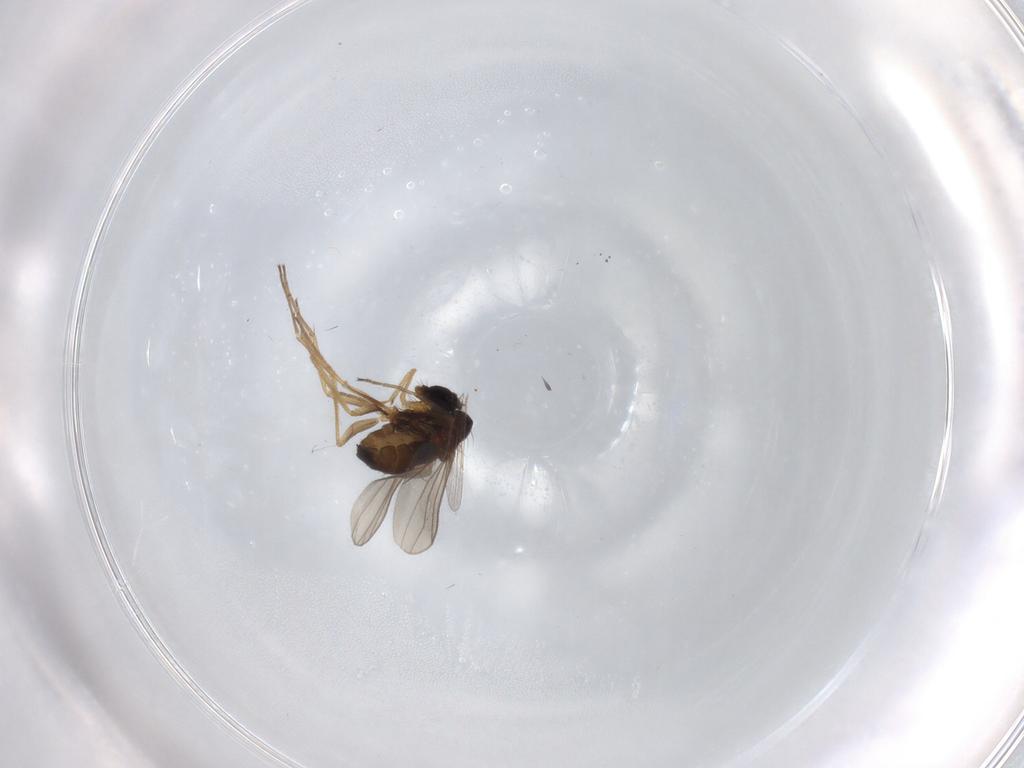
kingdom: Animalia
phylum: Arthropoda
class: Insecta
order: Diptera
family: Dolichopodidae
